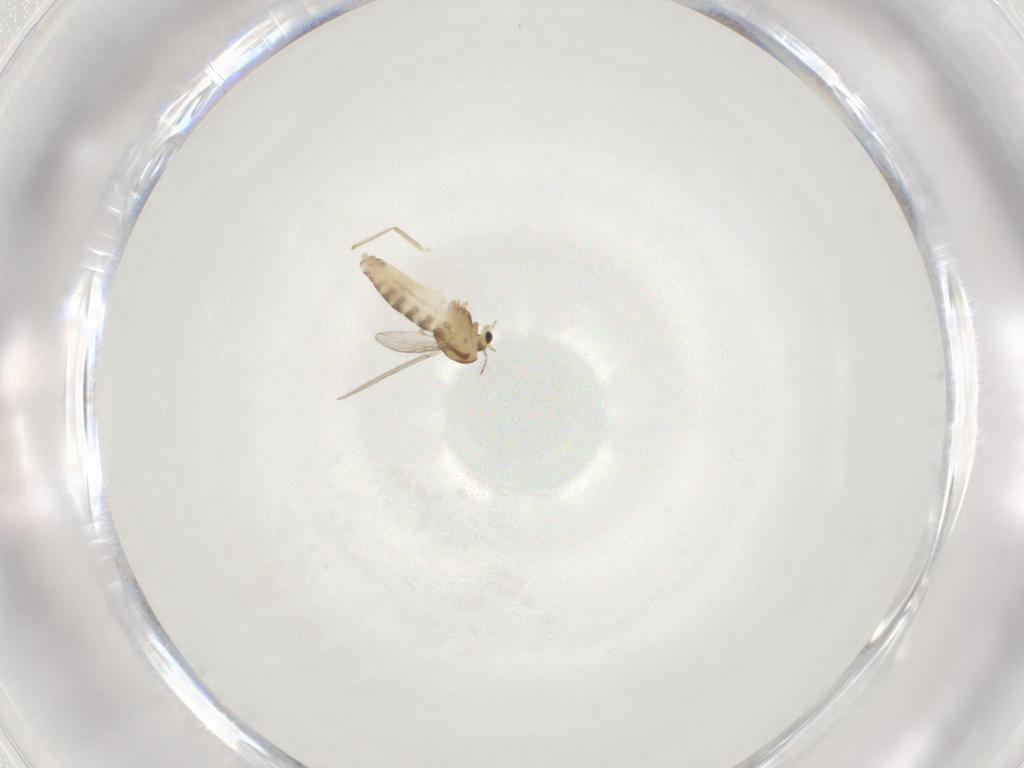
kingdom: Animalia
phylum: Arthropoda
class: Insecta
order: Diptera
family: Chironomidae
